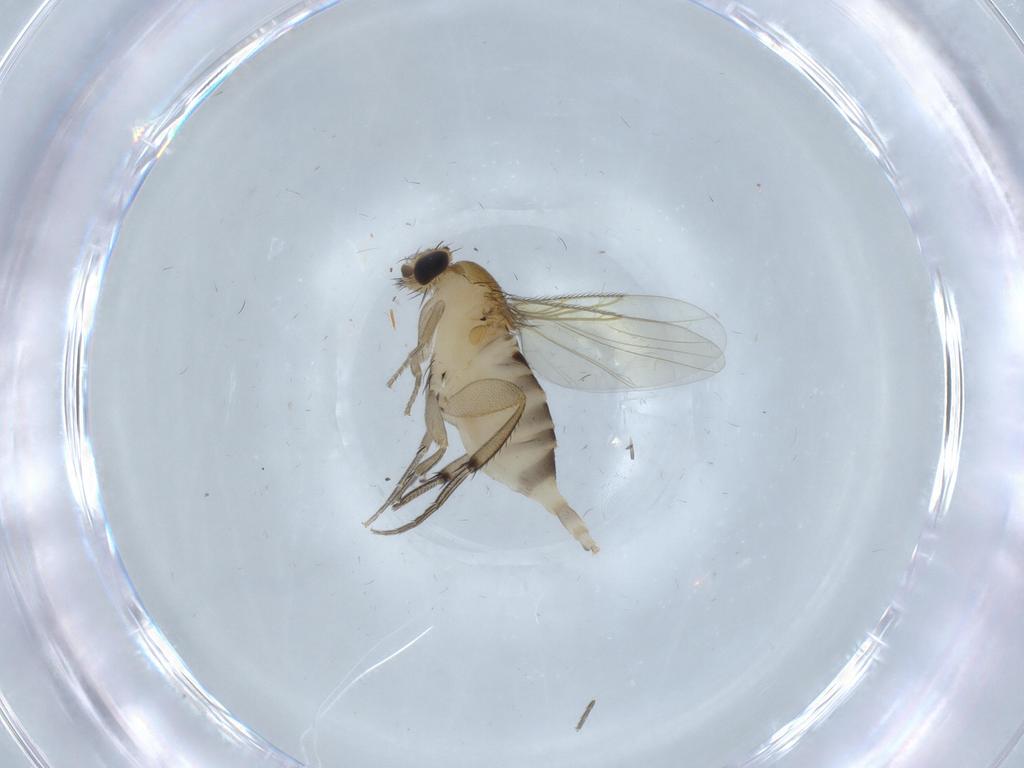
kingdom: Animalia
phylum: Arthropoda
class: Insecta
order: Diptera
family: Phoridae
